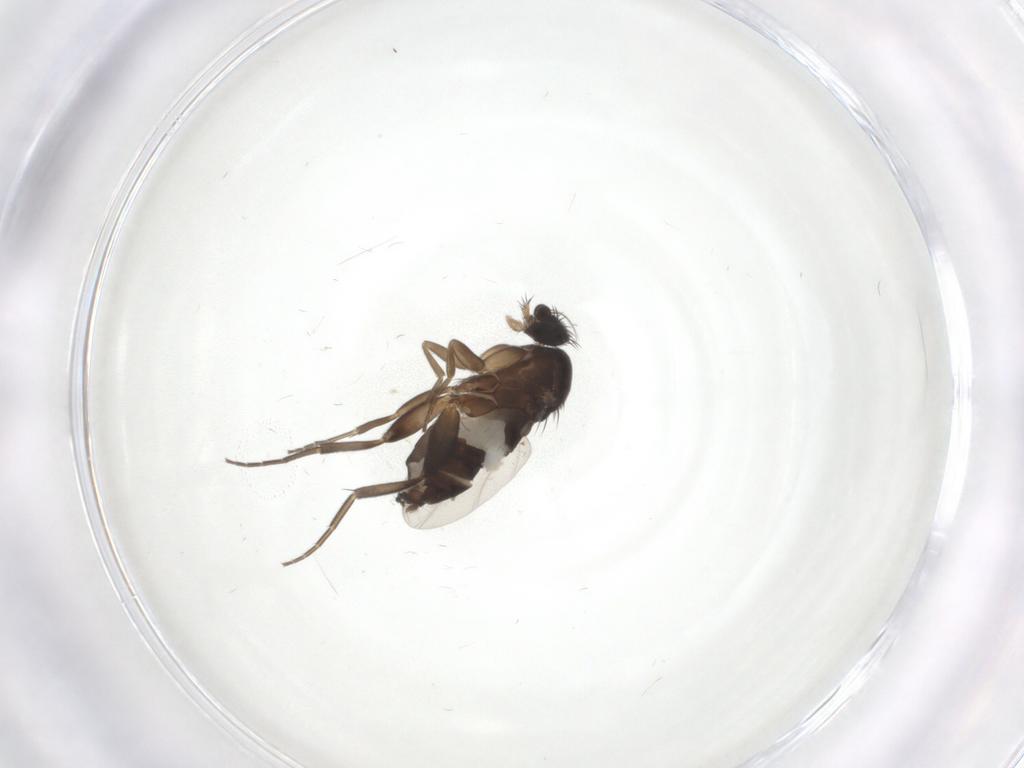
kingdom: Animalia
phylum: Arthropoda
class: Insecta
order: Diptera
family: Phoridae
